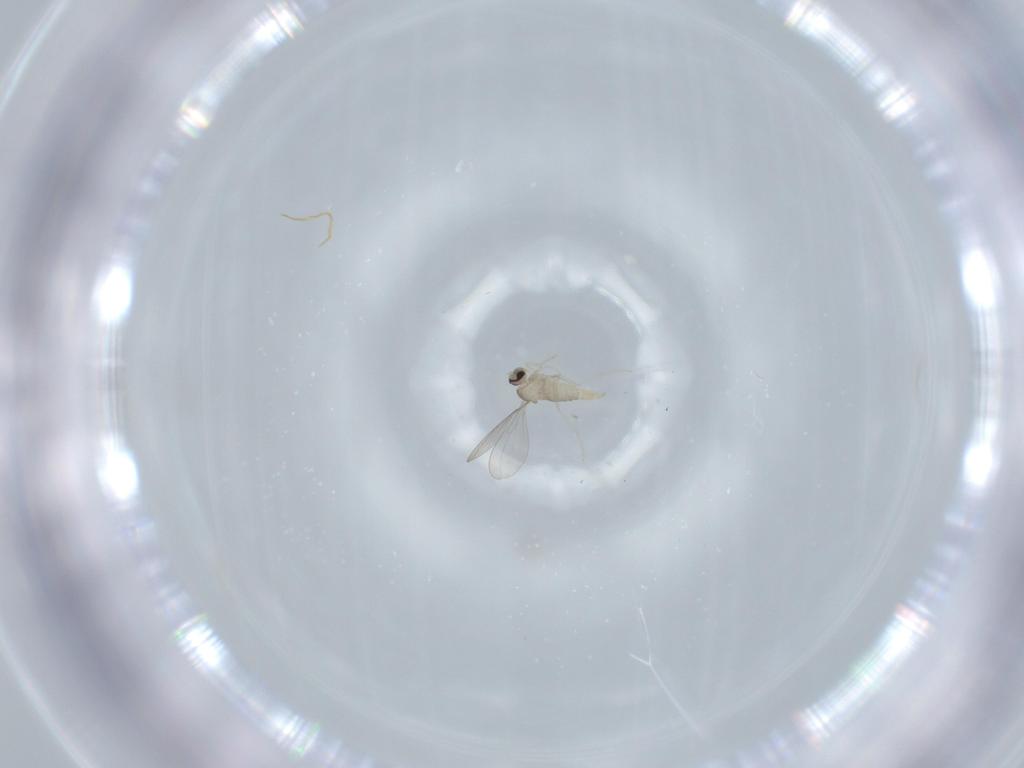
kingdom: Animalia
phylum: Arthropoda
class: Insecta
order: Diptera
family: Cecidomyiidae
